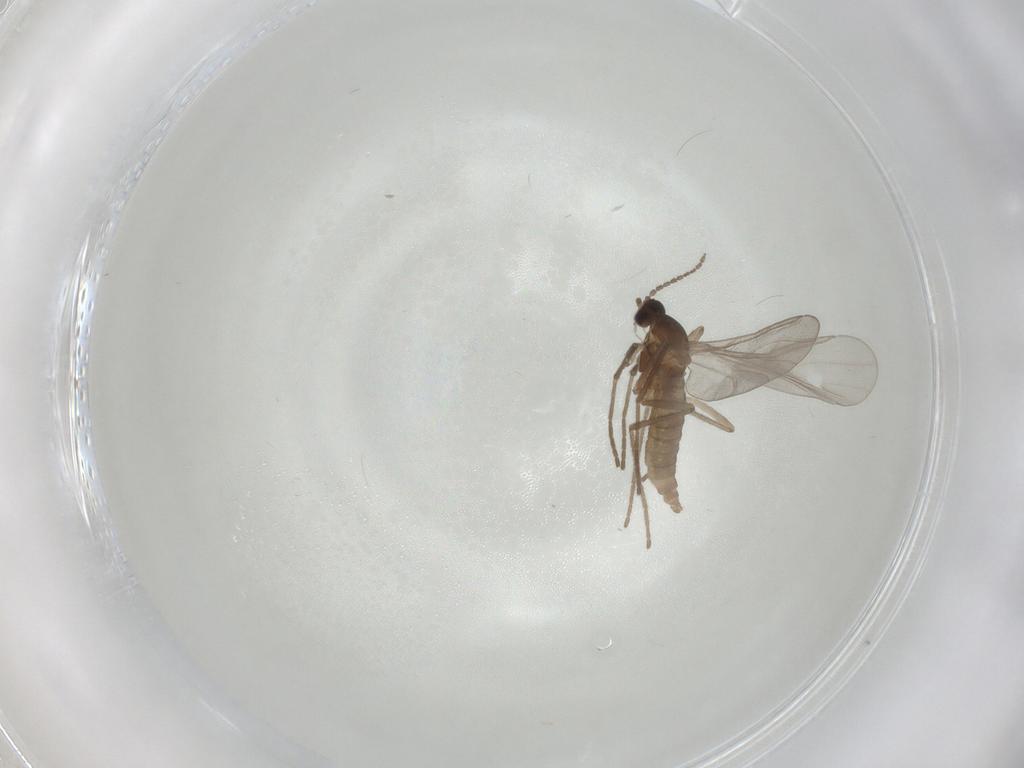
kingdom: Animalia
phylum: Arthropoda
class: Insecta
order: Diptera
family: Cecidomyiidae
